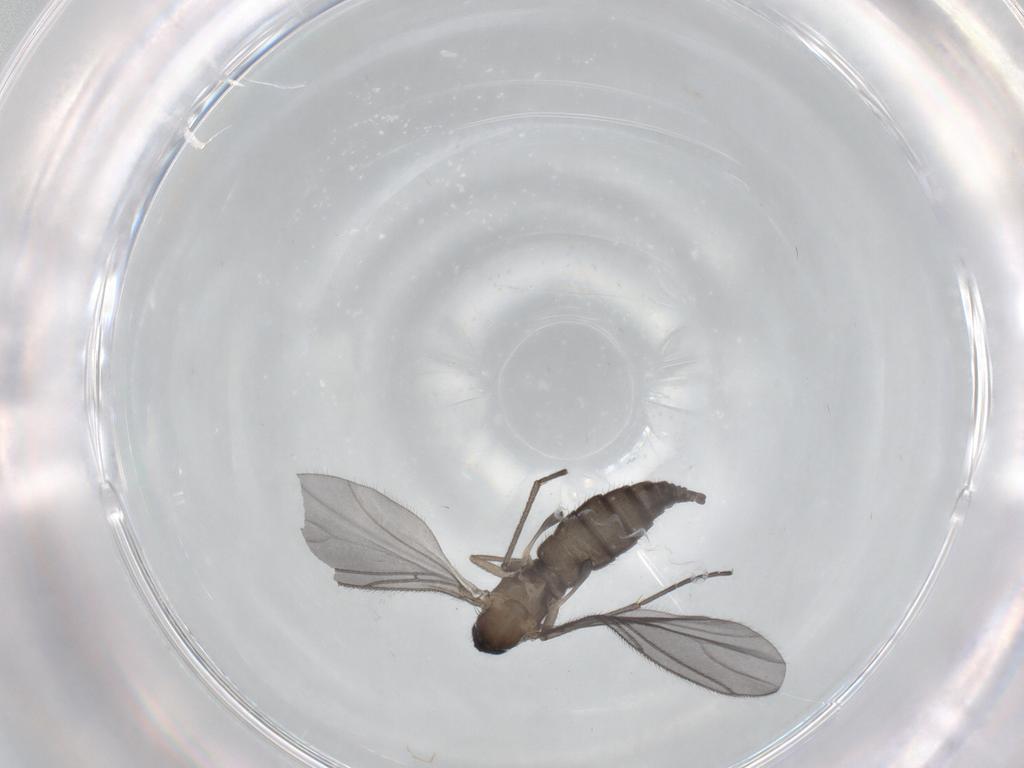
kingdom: Animalia
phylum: Arthropoda
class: Insecta
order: Diptera
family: Sciaridae
